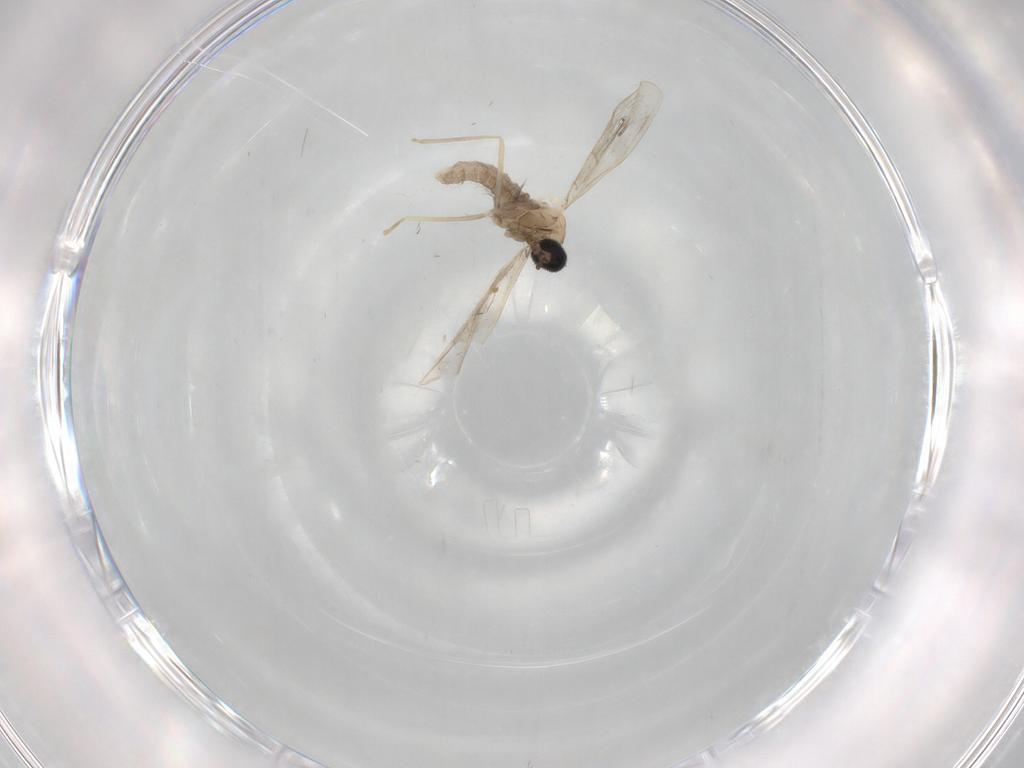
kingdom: Animalia
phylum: Arthropoda
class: Insecta
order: Diptera
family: Cecidomyiidae
